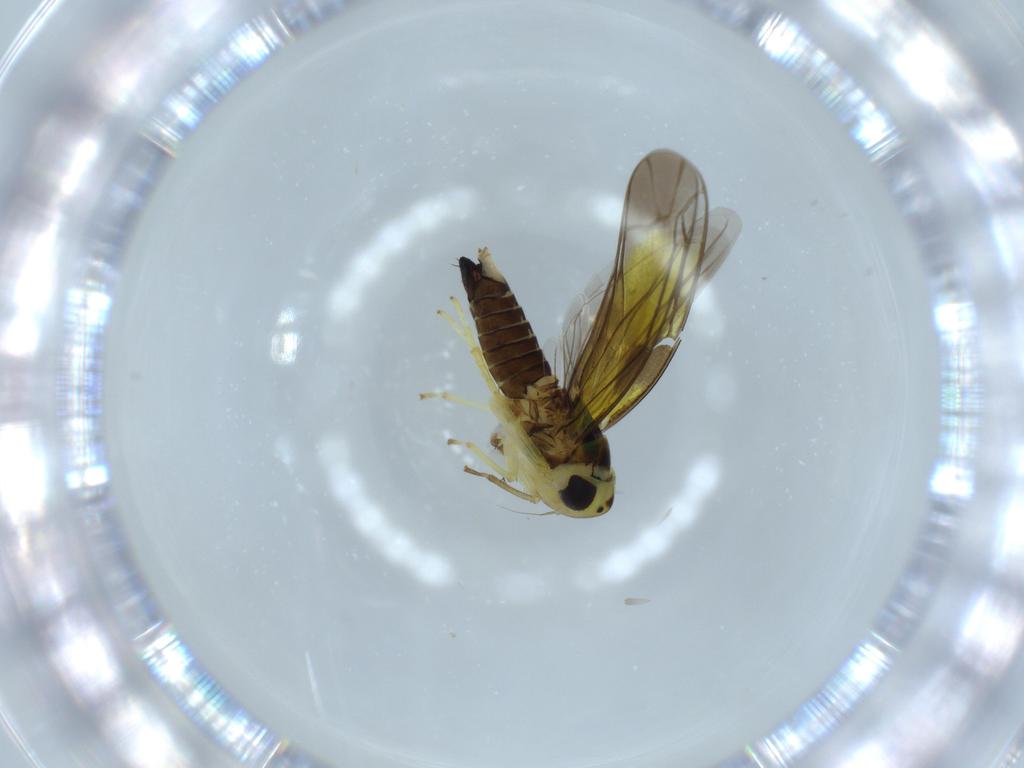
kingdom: Animalia
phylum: Arthropoda
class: Insecta
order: Hemiptera
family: Cicadellidae
